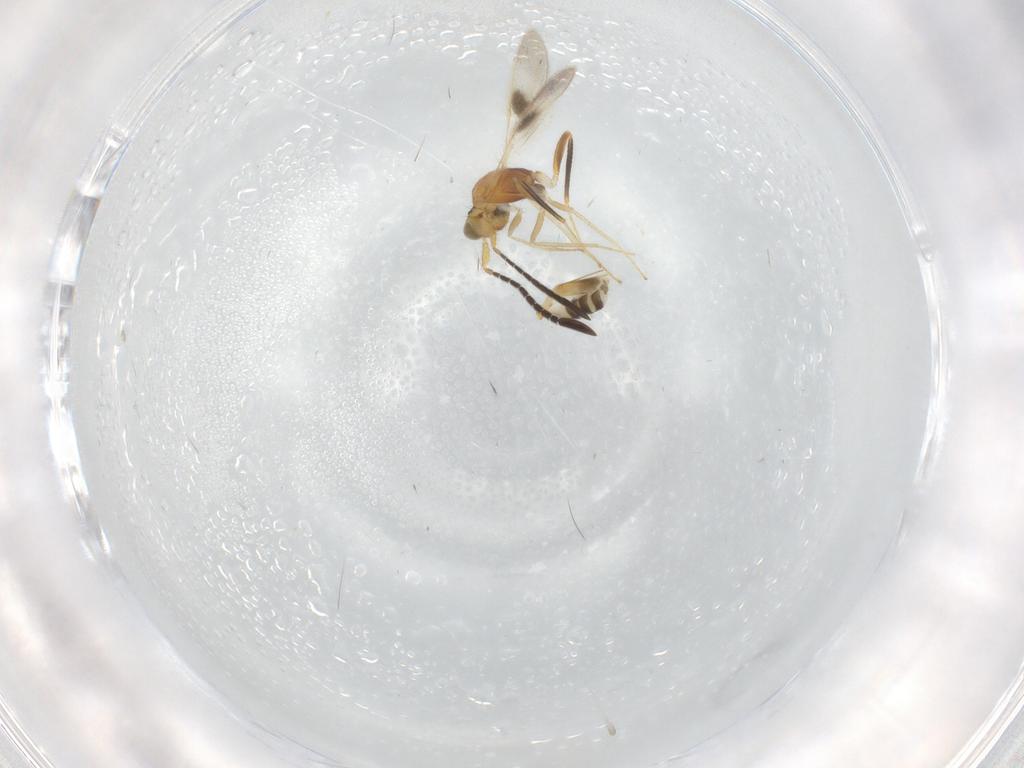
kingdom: Animalia
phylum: Arthropoda
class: Insecta
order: Hymenoptera
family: Mymaridae
